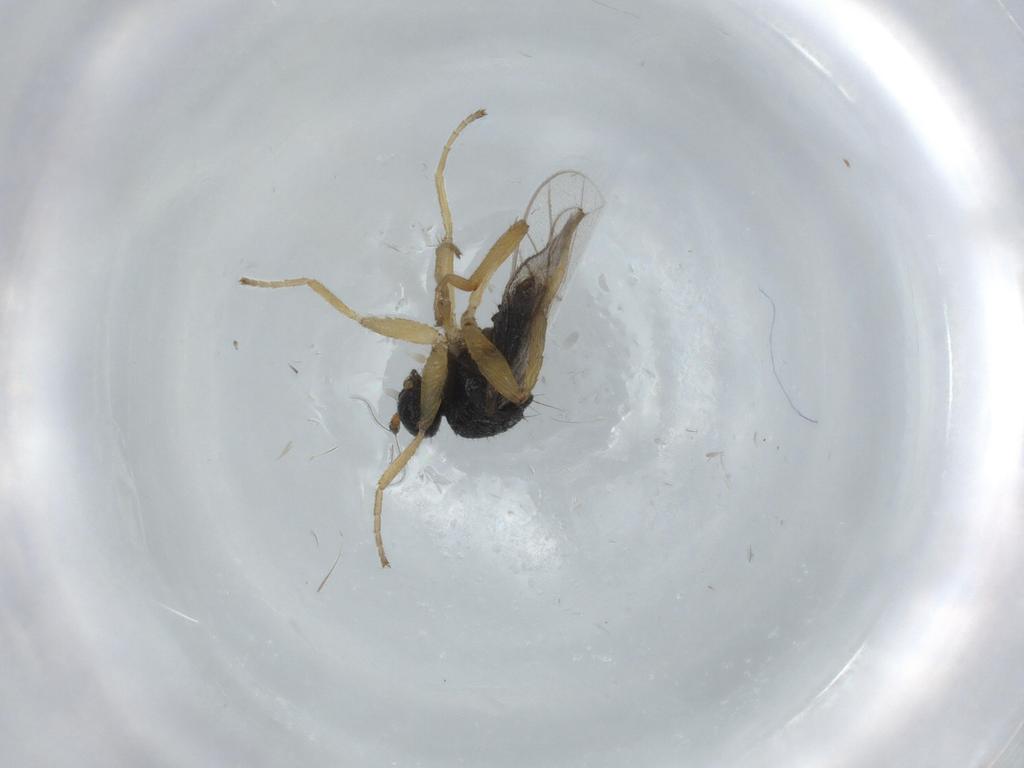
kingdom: Animalia
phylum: Arthropoda
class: Insecta
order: Diptera
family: Hybotidae
